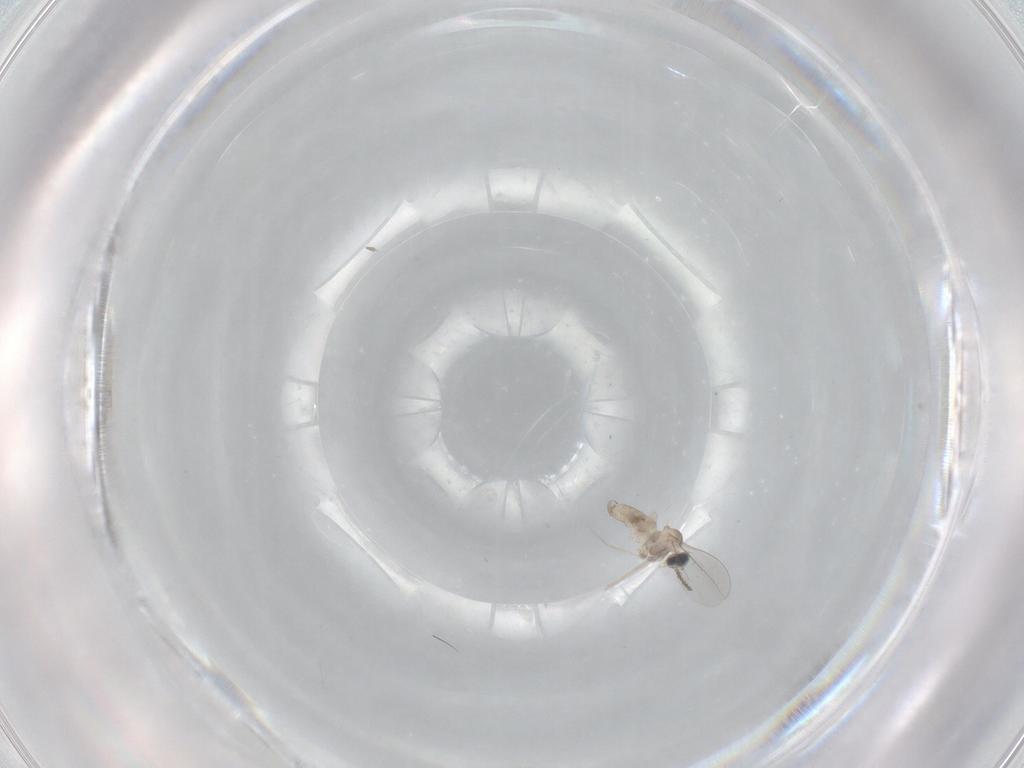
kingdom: Animalia
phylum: Arthropoda
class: Insecta
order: Diptera
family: Cecidomyiidae
